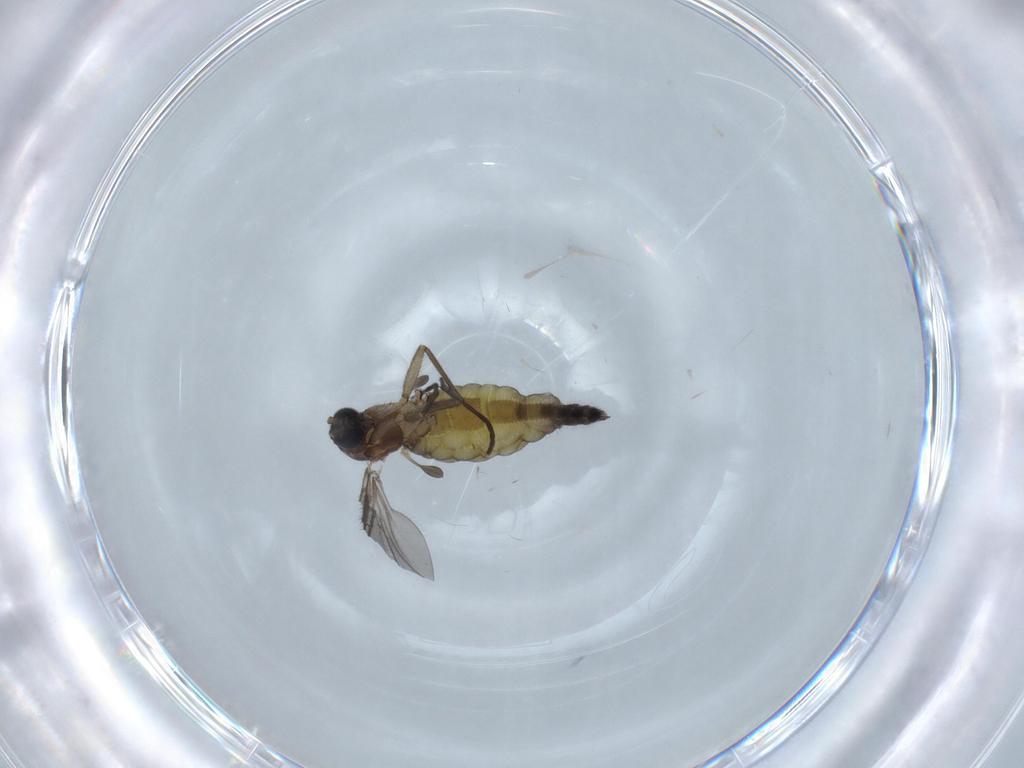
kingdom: Animalia
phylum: Arthropoda
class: Insecta
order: Diptera
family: Sciaridae
